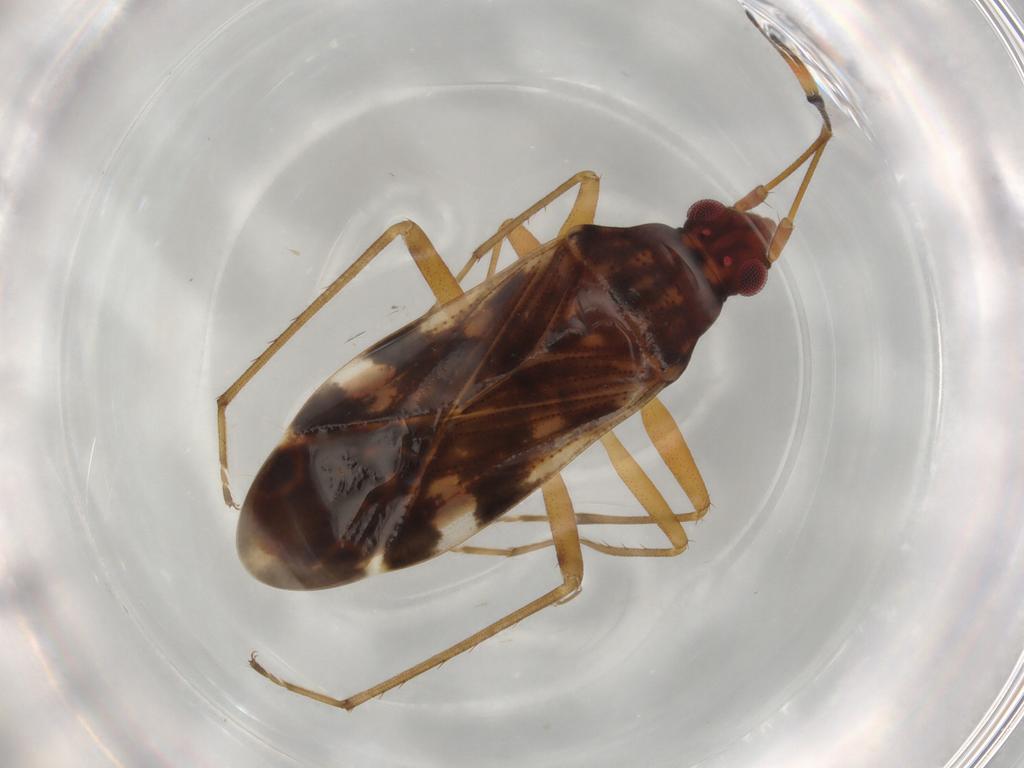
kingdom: Animalia
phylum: Arthropoda
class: Insecta
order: Hemiptera
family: Rhyparochromidae
